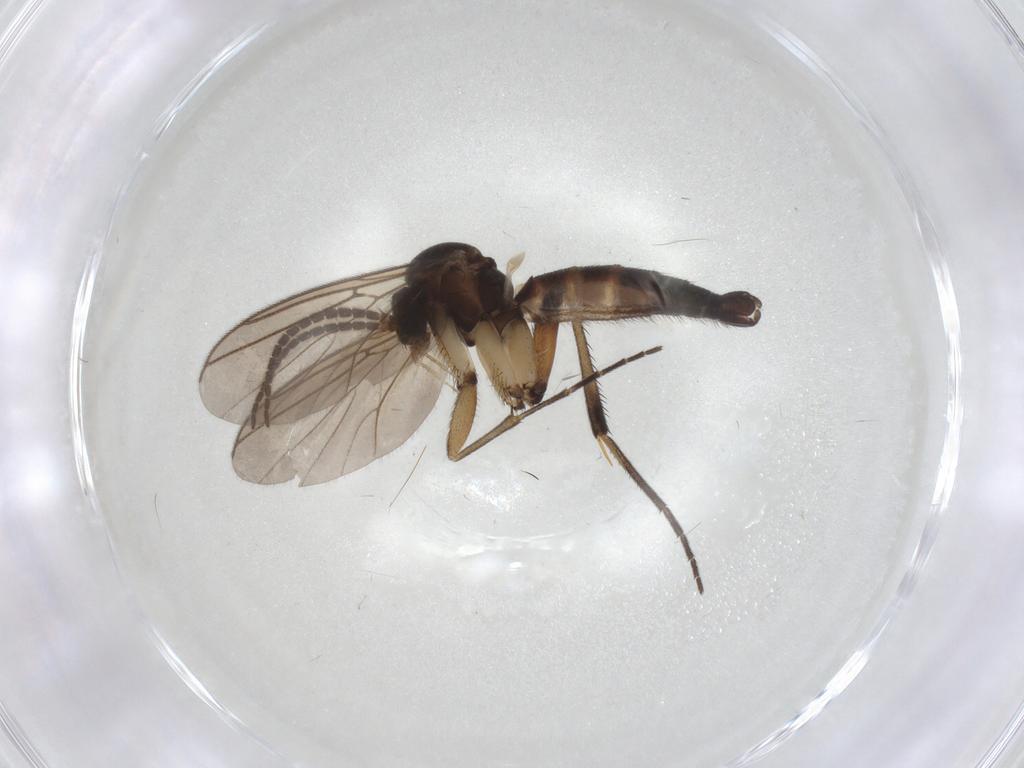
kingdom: Animalia
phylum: Arthropoda
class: Insecta
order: Diptera
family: Mycetophilidae
